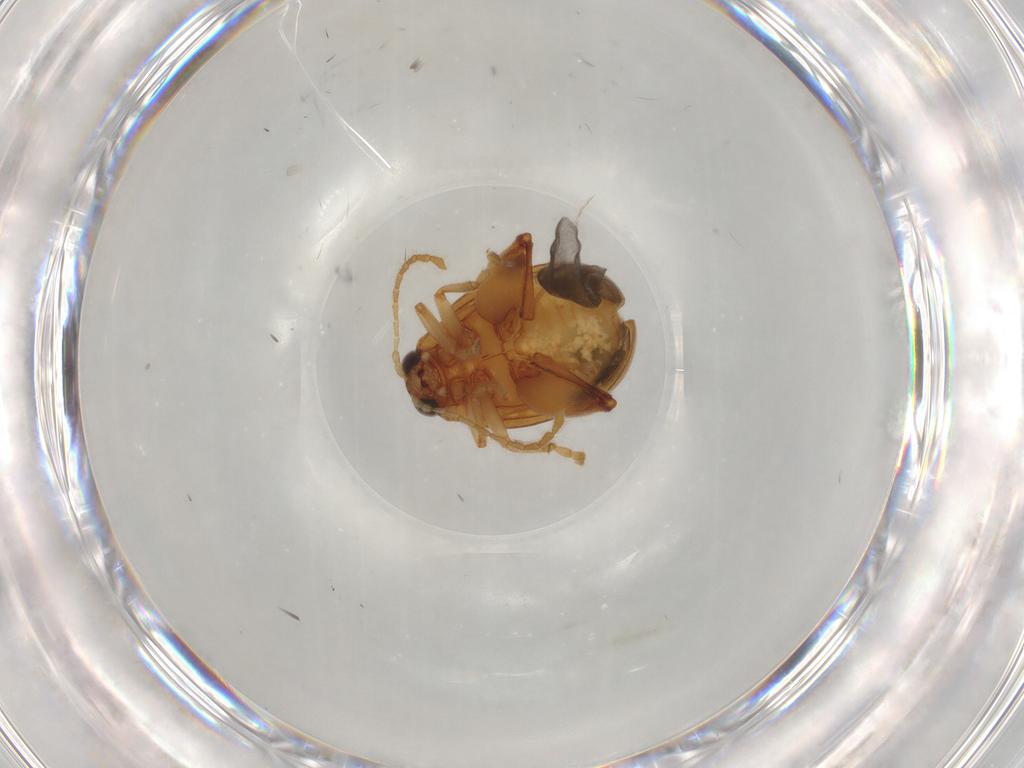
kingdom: Animalia
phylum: Arthropoda
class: Insecta
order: Coleoptera
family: Chrysomelidae
